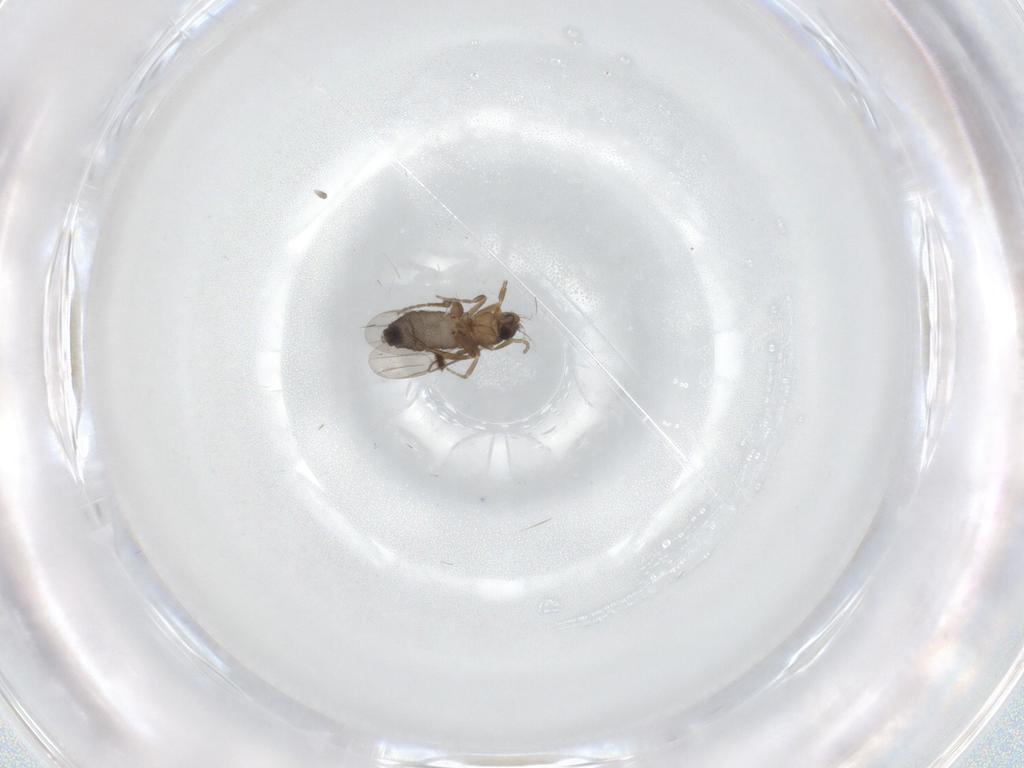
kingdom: Animalia
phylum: Arthropoda
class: Insecta
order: Diptera
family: Phoridae
